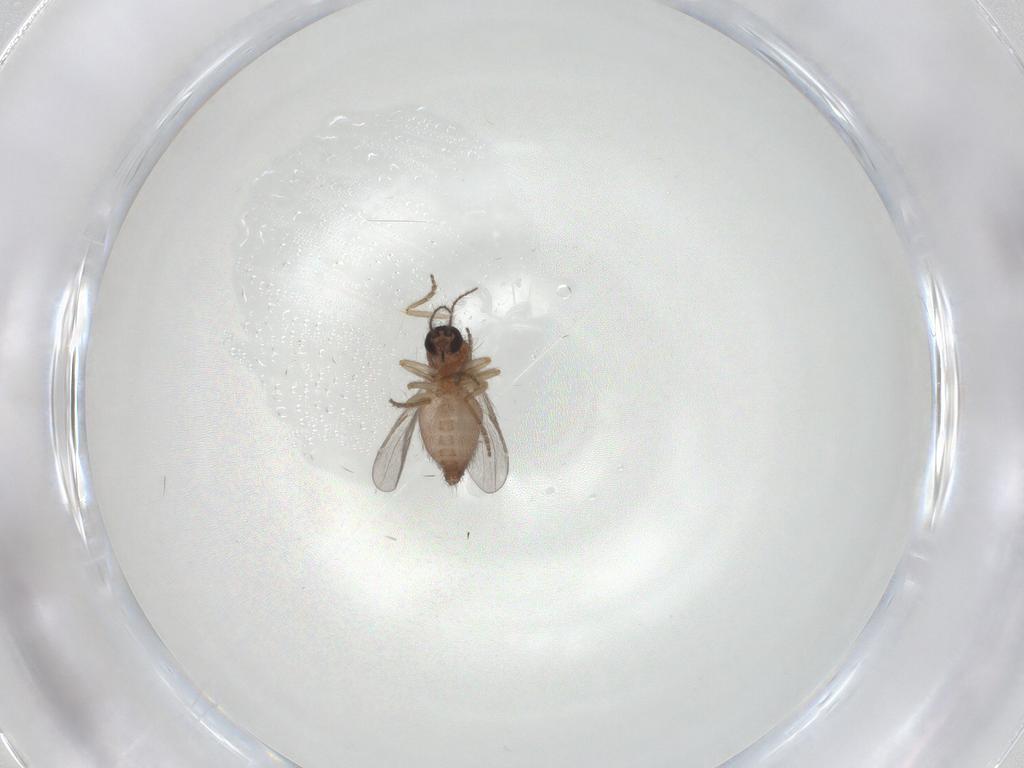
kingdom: Animalia
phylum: Arthropoda
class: Insecta
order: Diptera
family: Ceratopogonidae
